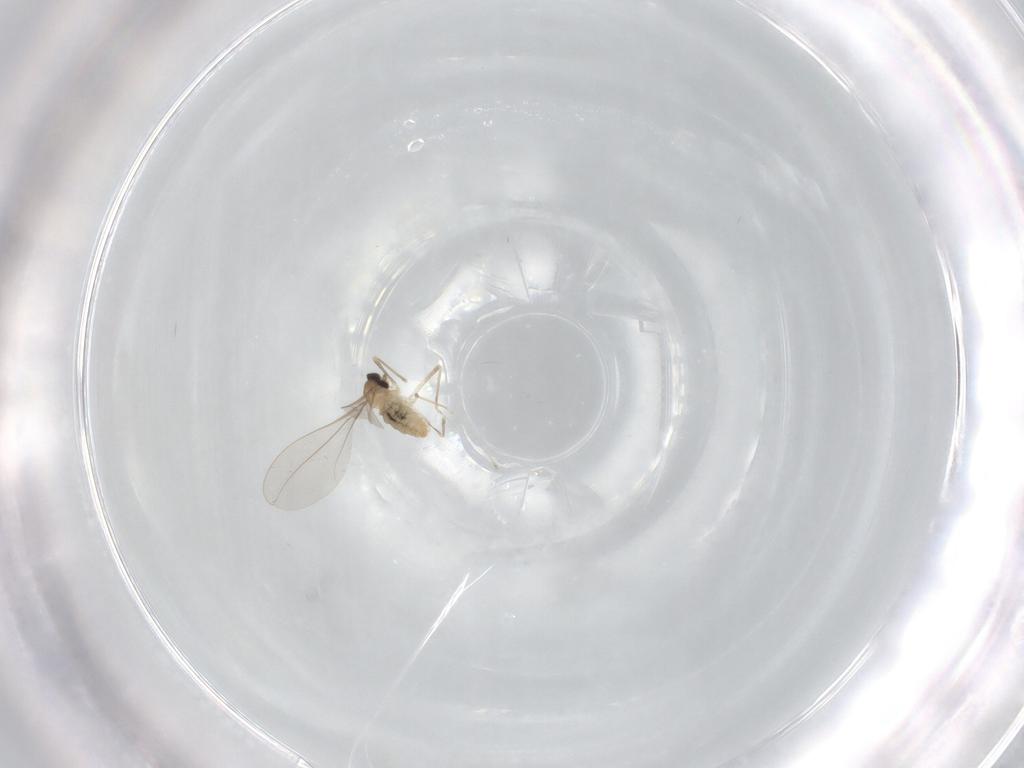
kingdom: Animalia
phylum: Arthropoda
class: Insecta
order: Diptera
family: Cecidomyiidae
